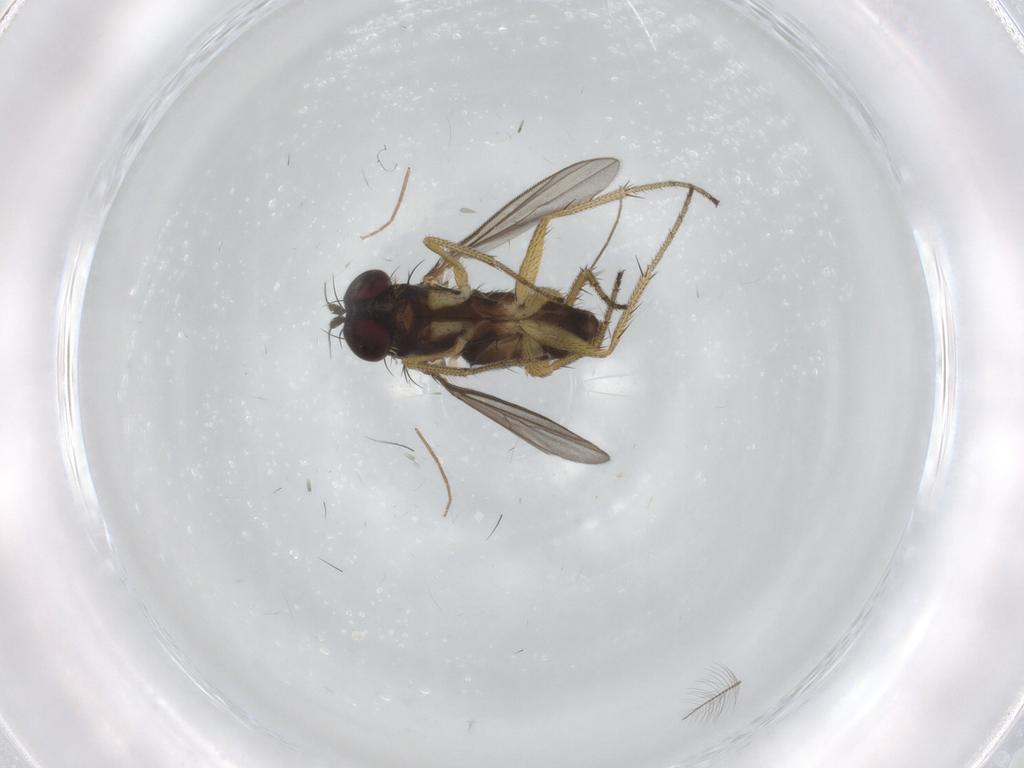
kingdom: Animalia
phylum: Arthropoda
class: Insecta
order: Diptera
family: Chironomidae
